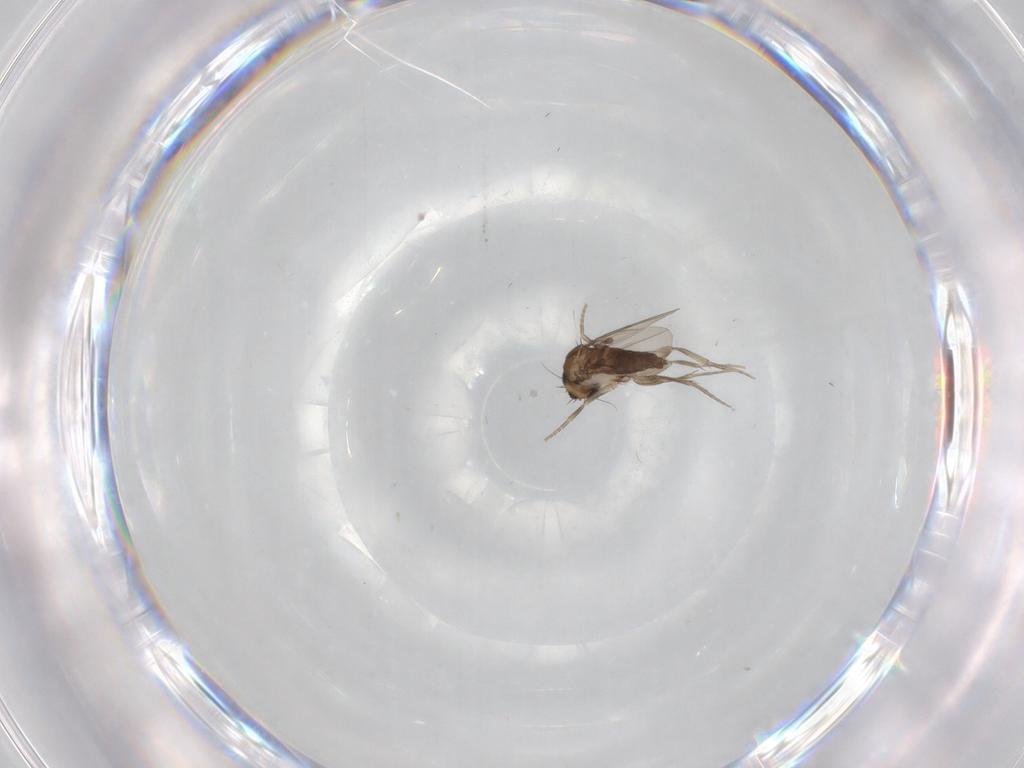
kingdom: Animalia
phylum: Arthropoda
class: Insecta
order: Diptera
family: Phoridae
